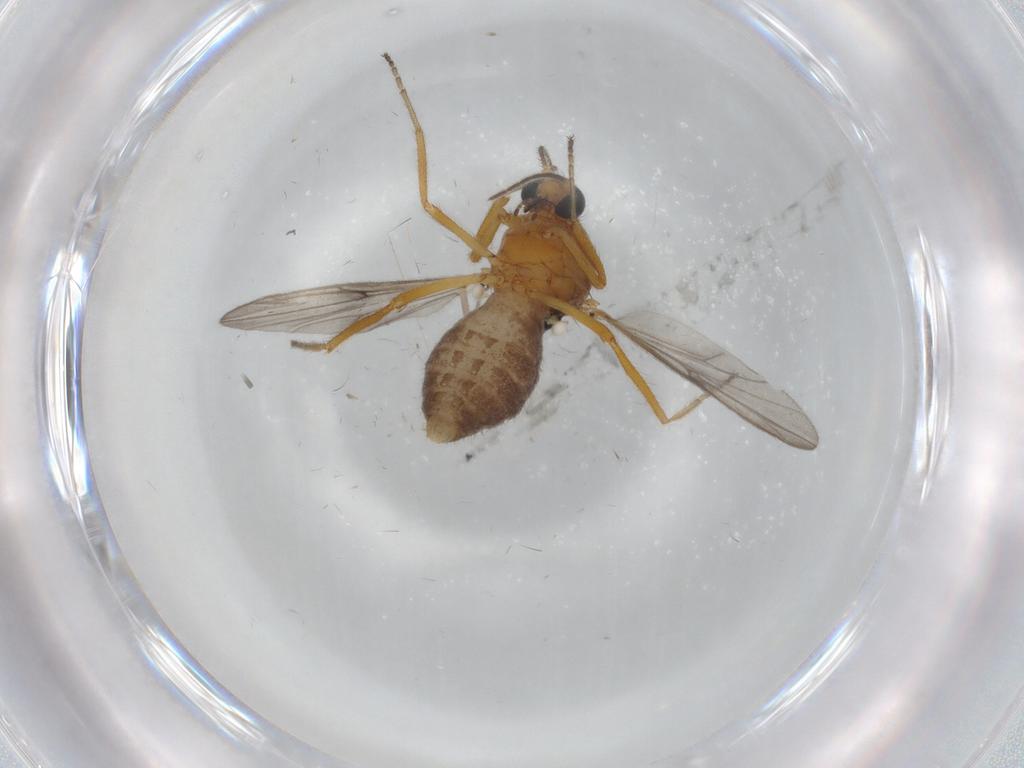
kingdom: Animalia
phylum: Arthropoda
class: Insecta
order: Diptera
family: Ceratopogonidae
